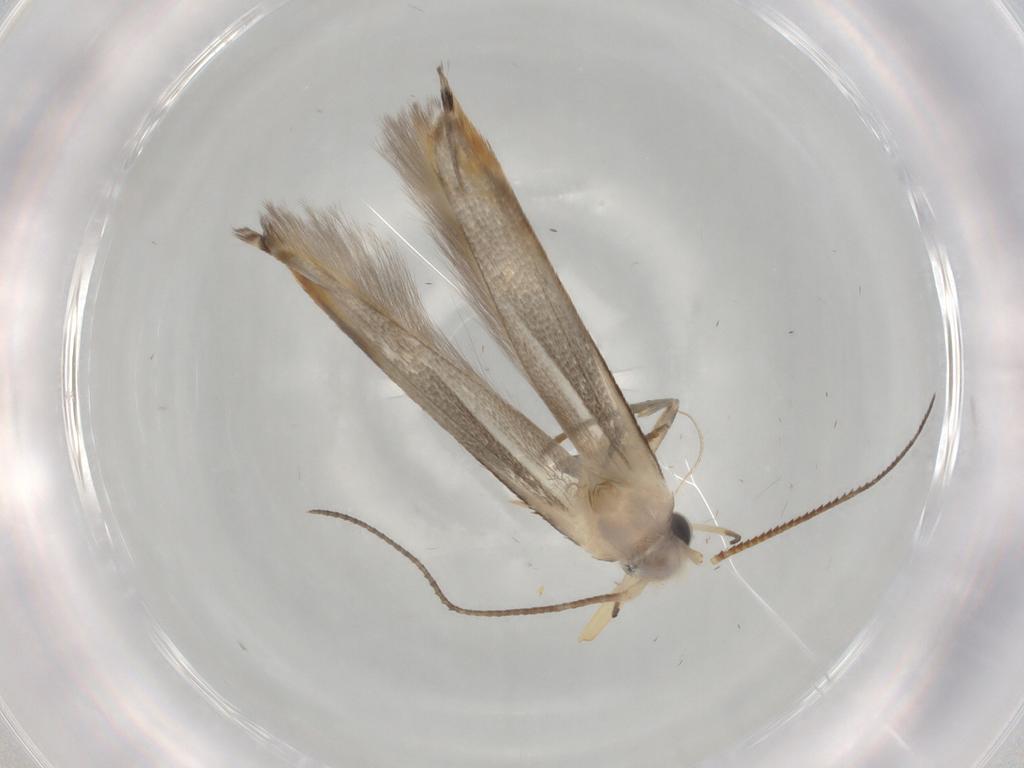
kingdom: Animalia
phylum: Arthropoda
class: Insecta
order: Lepidoptera
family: Gelechiidae
